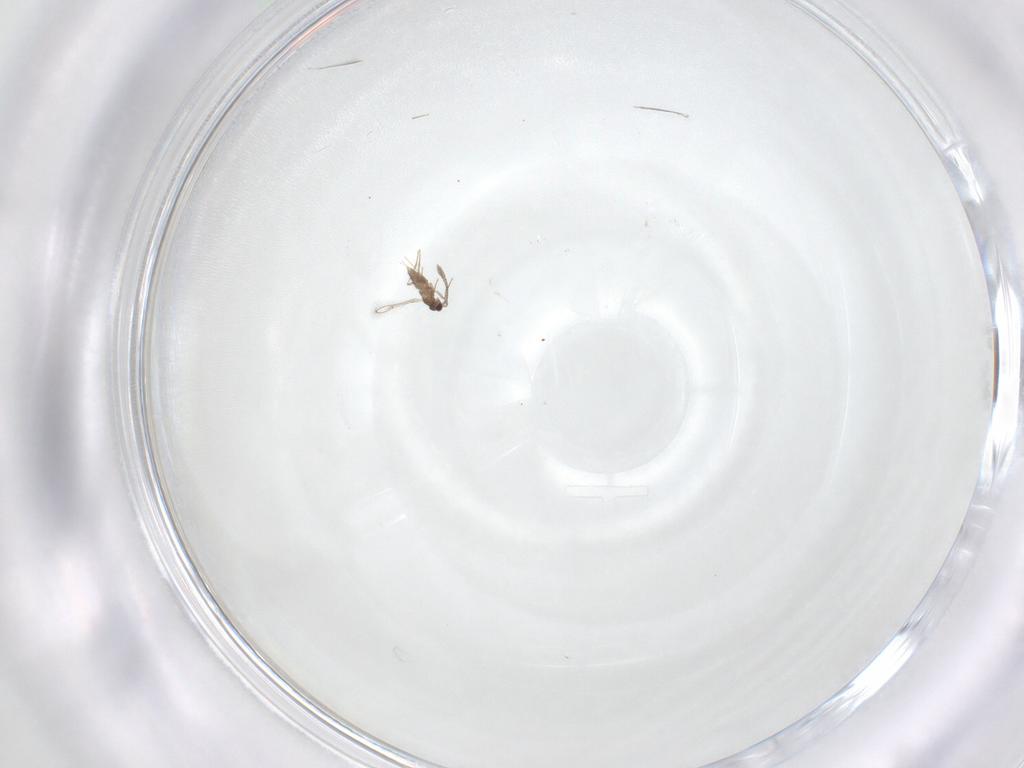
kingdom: Animalia
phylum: Arthropoda
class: Insecta
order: Hymenoptera
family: Mymaridae
